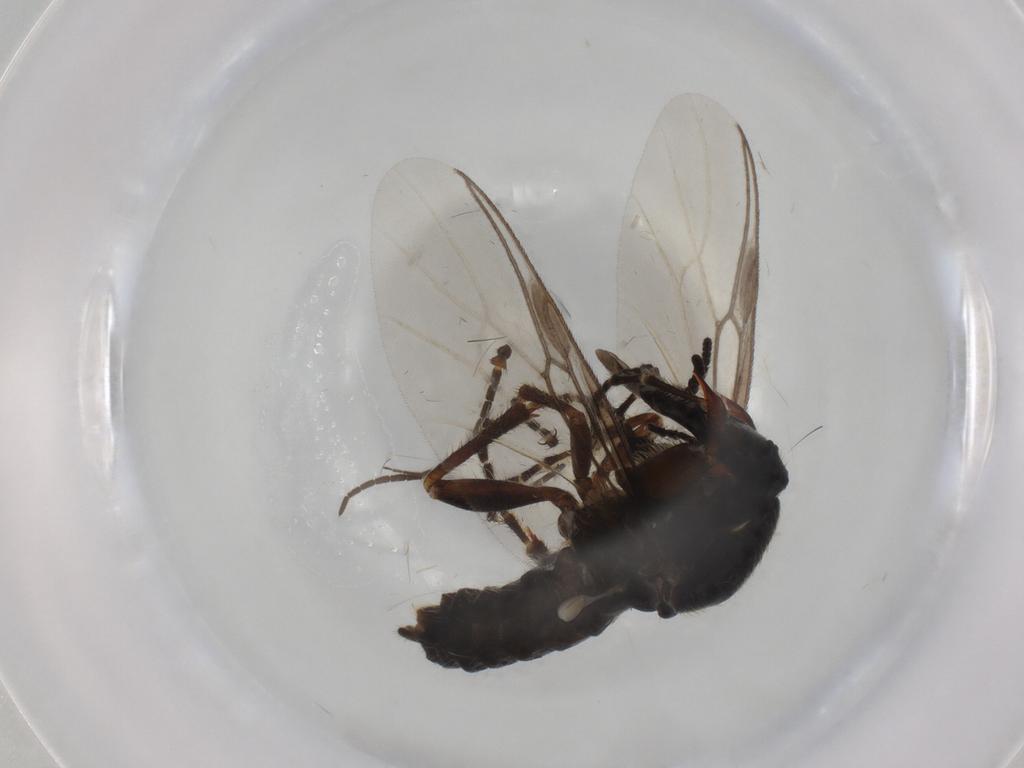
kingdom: Animalia
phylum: Arthropoda
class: Insecta
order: Diptera
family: Bibionidae
